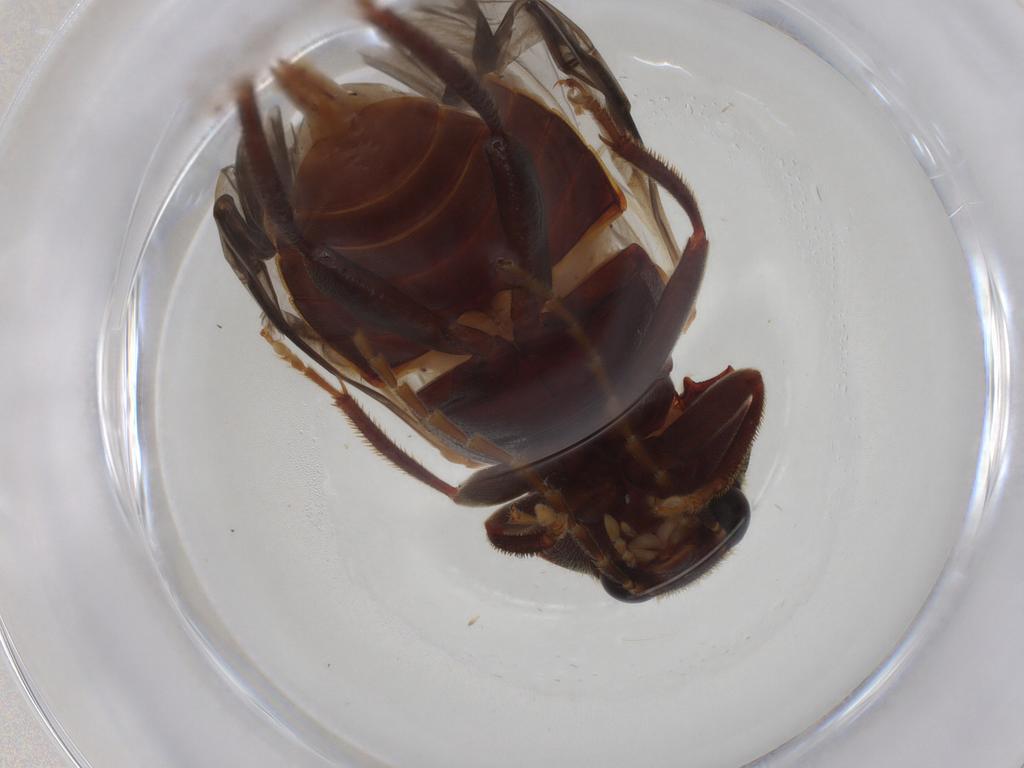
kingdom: Animalia
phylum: Arthropoda
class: Insecta
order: Coleoptera
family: Ptilodactylidae
